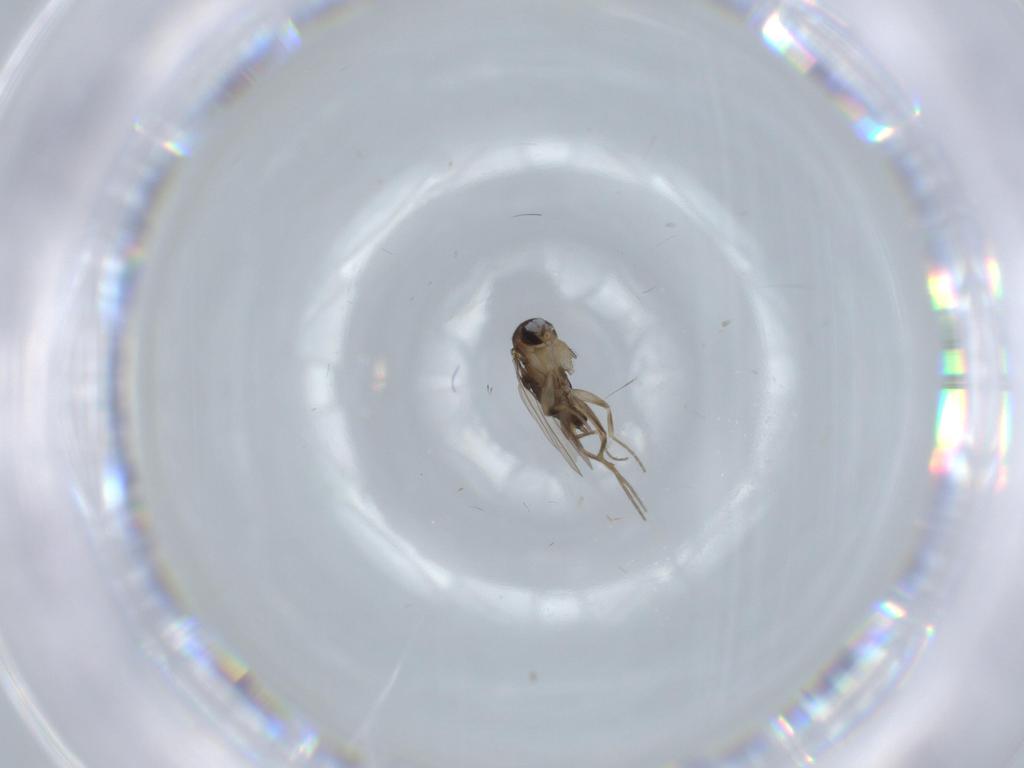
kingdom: Animalia
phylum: Arthropoda
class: Insecta
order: Diptera
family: Phoridae
